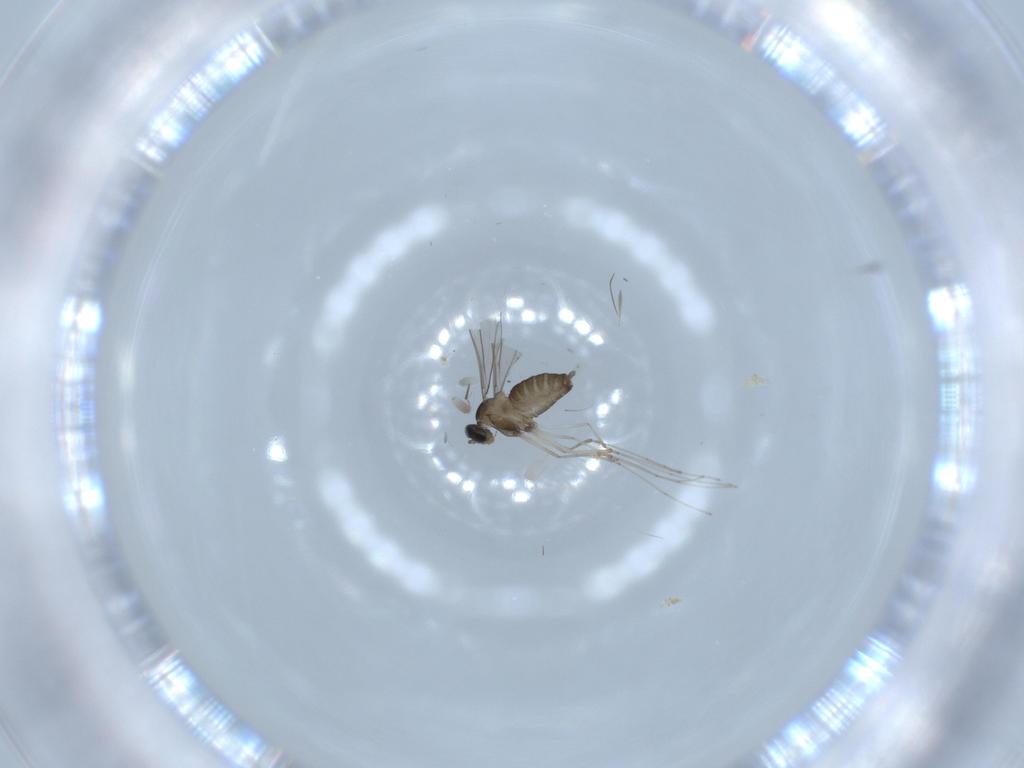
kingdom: Animalia
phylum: Arthropoda
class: Insecta
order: Diptera
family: Cecidomyiidae
